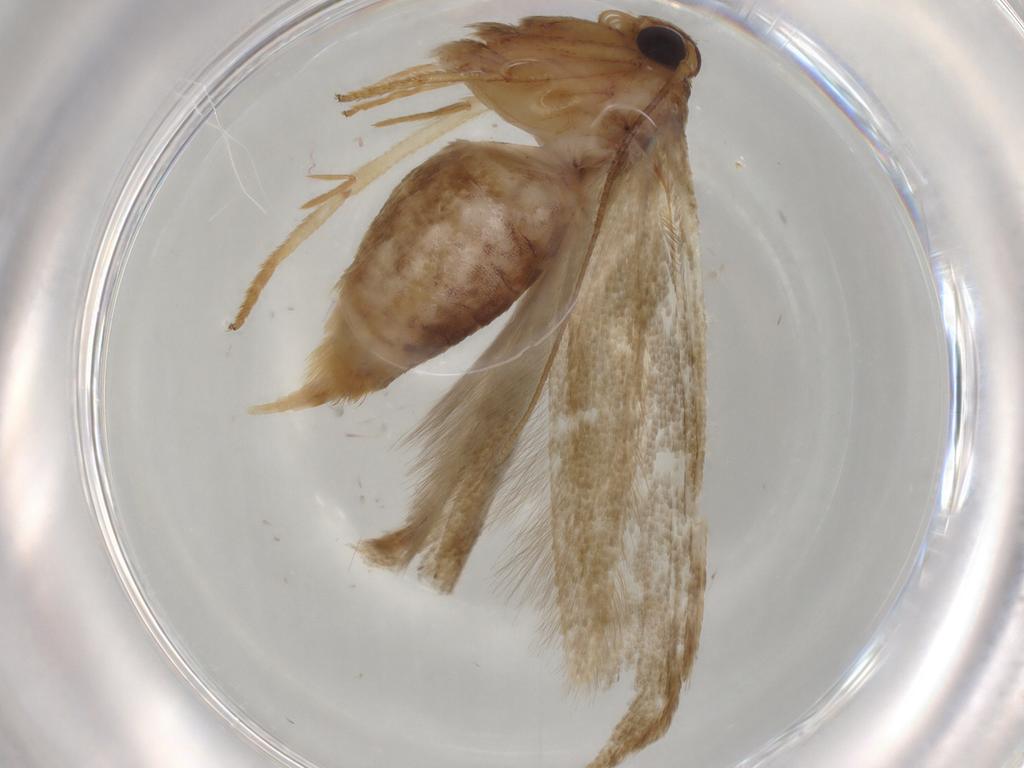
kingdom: Animalia
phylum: Arthropoda
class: Insecta
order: Lepidoptera
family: Blastobasidae
